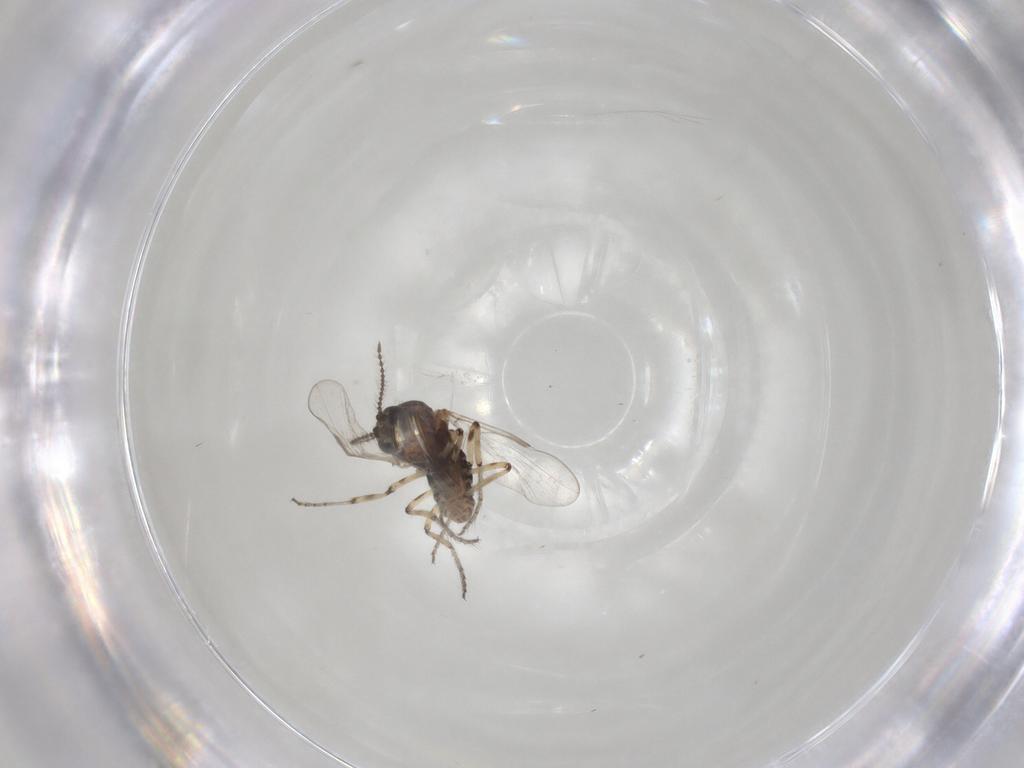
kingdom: Animalia
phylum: Arthropoda
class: Insecta
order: Diptera
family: Ceratopogonidae
